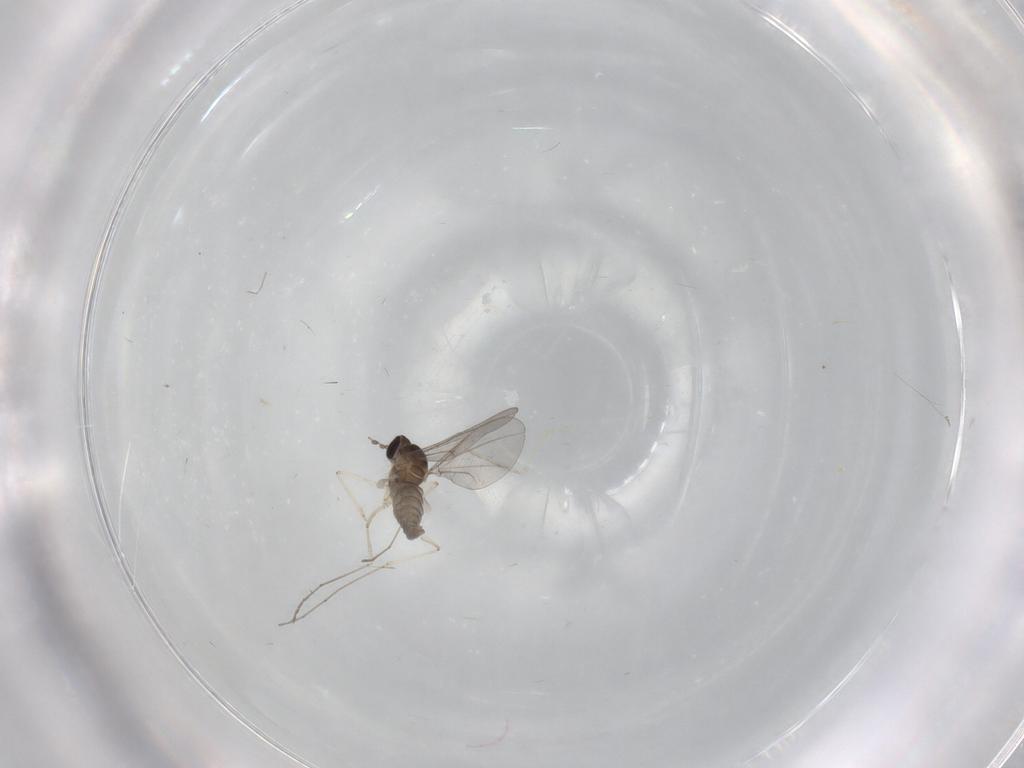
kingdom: Animalia
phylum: Arthropoda
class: Insecta
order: Diptera
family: Cecidomyiidae
